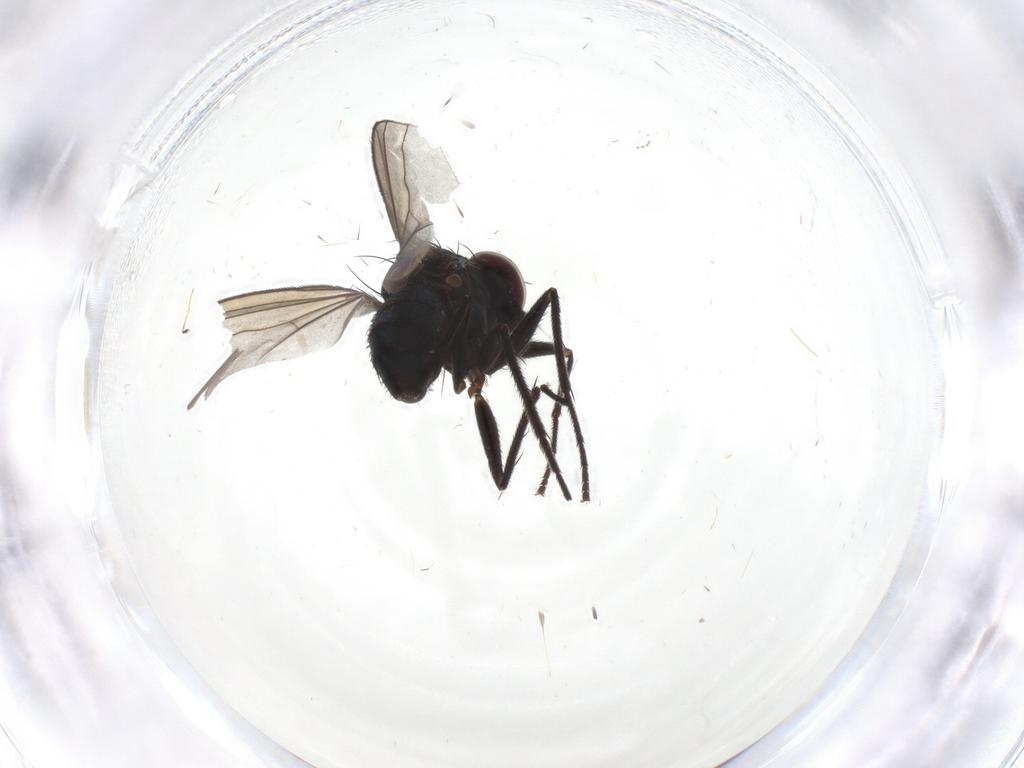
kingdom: Animalia
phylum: Arthropoda
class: Insecta
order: Diptera
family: Dolichopodidae
